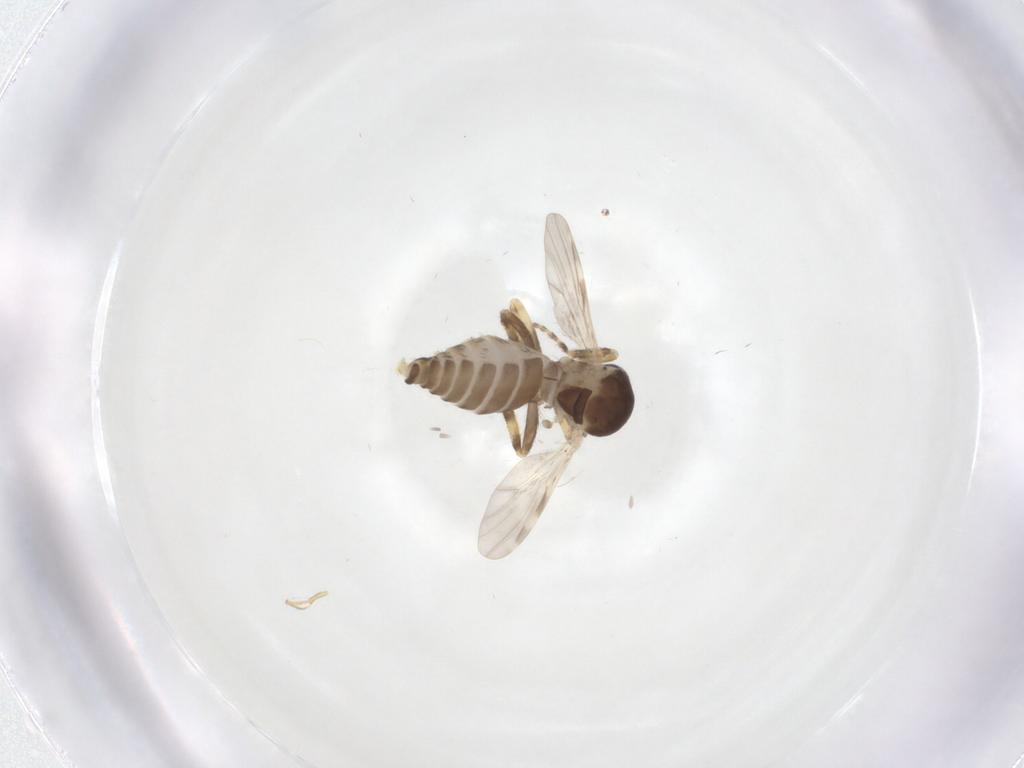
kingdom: Animalia
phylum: Arthropoda
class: Insecta
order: Diptera
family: Ceratopogonidae
